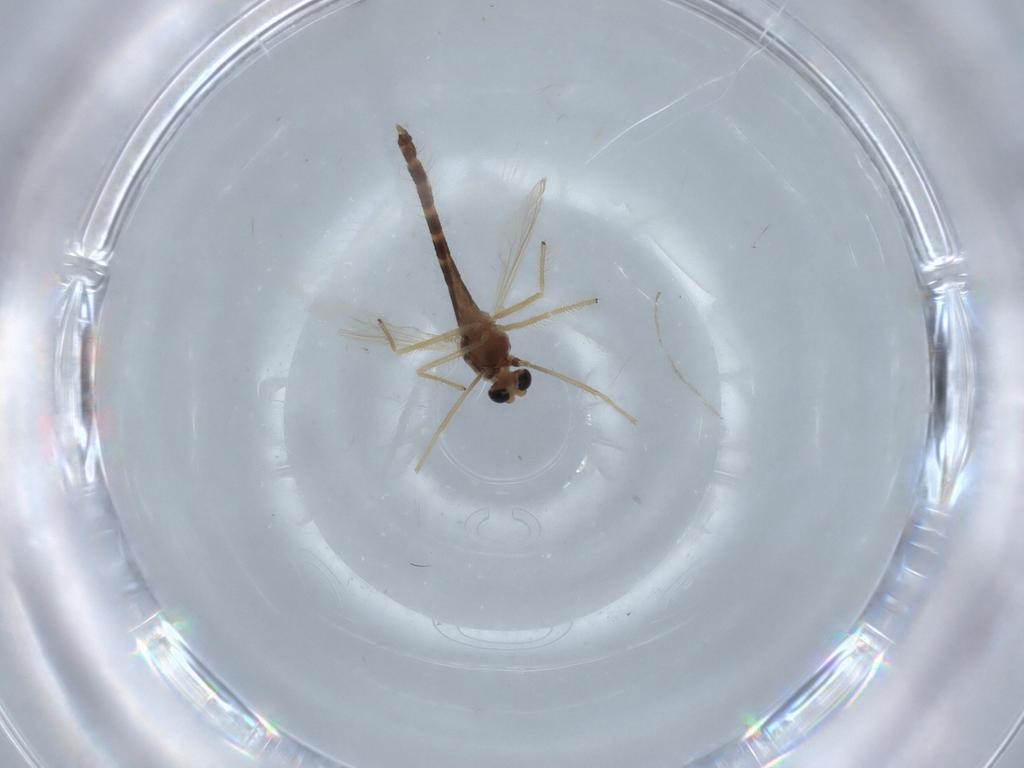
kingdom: Animalia
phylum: Arthropoda
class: Insecta
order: Diptera
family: Chironomidae
